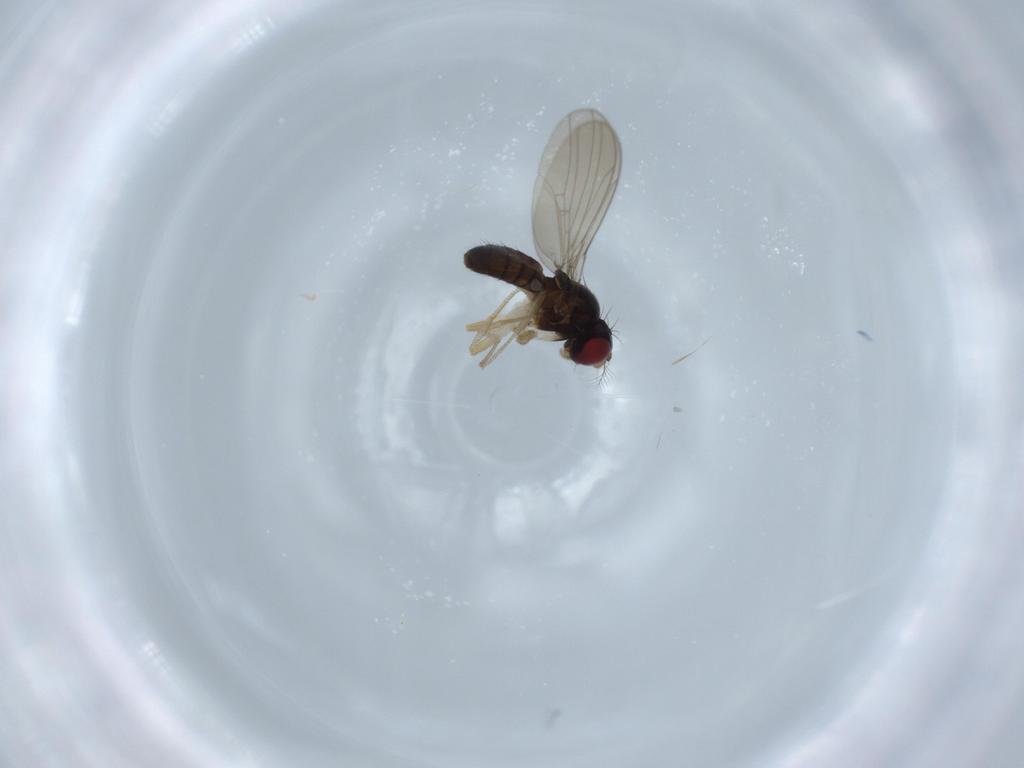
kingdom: Animalia
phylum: Arthropoda
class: Insecta
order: Diptera
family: Drosophilidae
